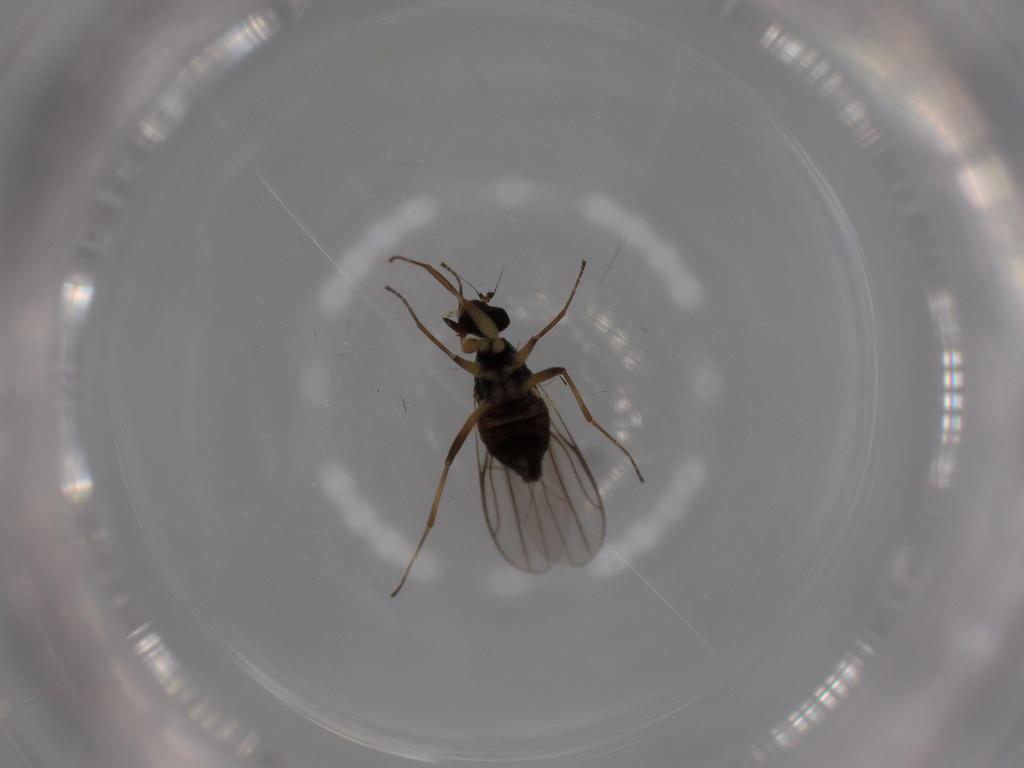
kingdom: Animalia
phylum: Arthropoda
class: Insecta
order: Diptera
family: Hybotidae
